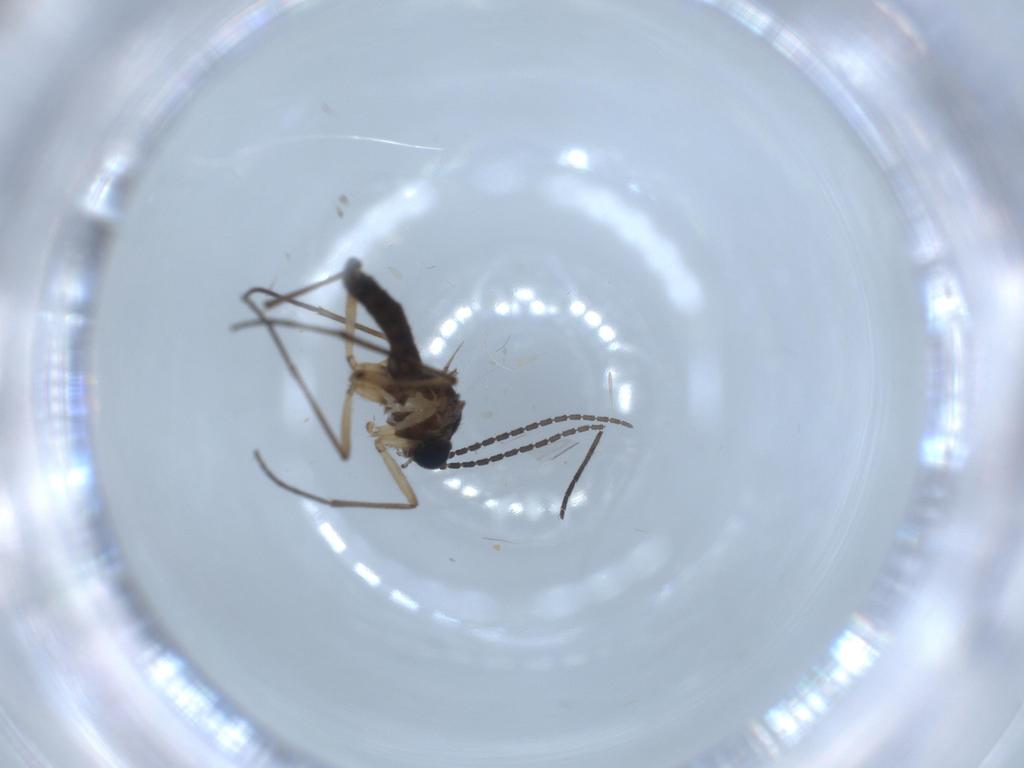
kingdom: Animalia
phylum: Arthropoda
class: Insecta
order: Diptera
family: Sciaridae
